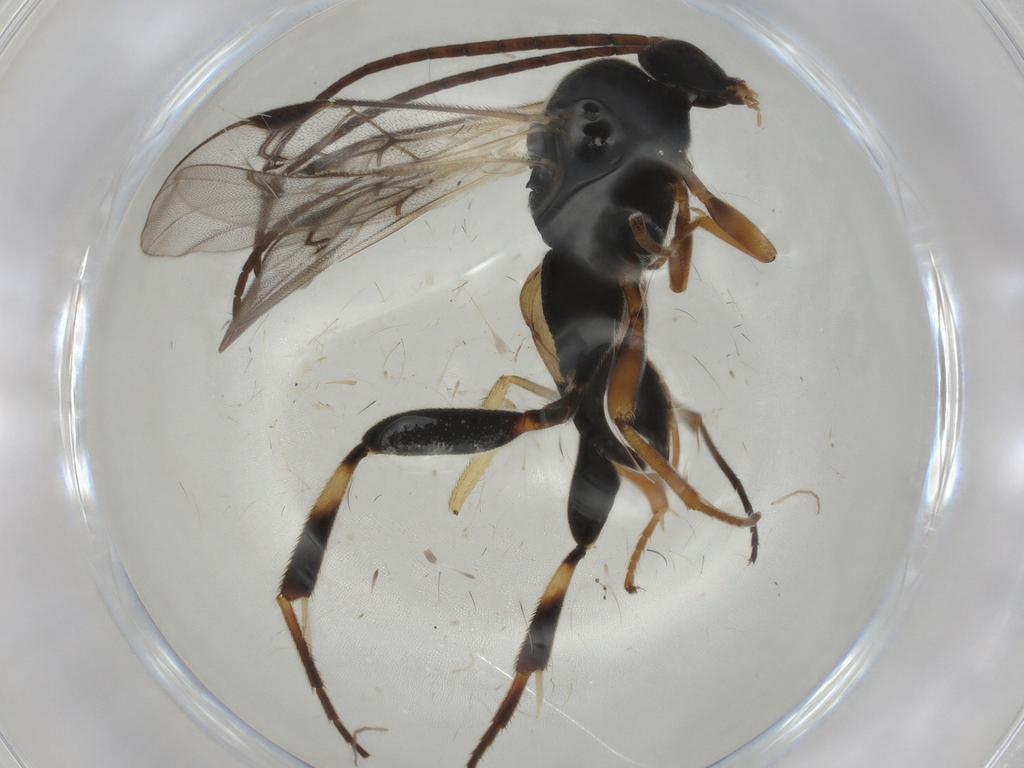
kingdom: Animalia
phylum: Arthropoda
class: Insecta
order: Hymenoptera
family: Braconidae
